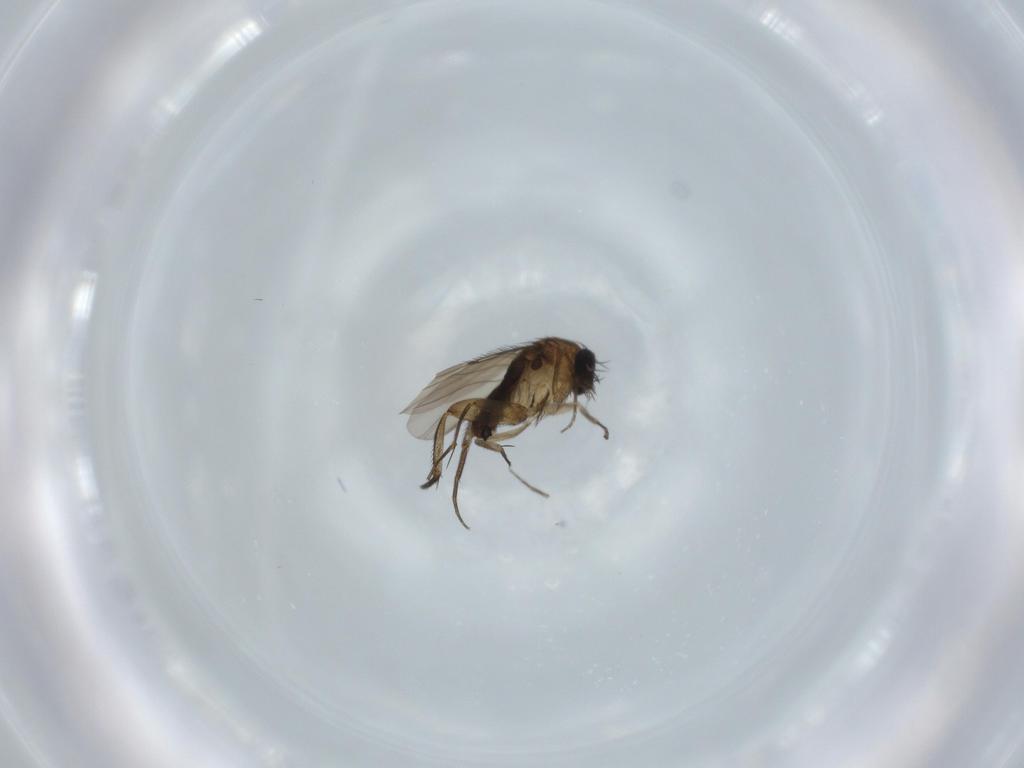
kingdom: Animalia
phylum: Arthropoda
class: Insecta
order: Diptera
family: Phoridae
